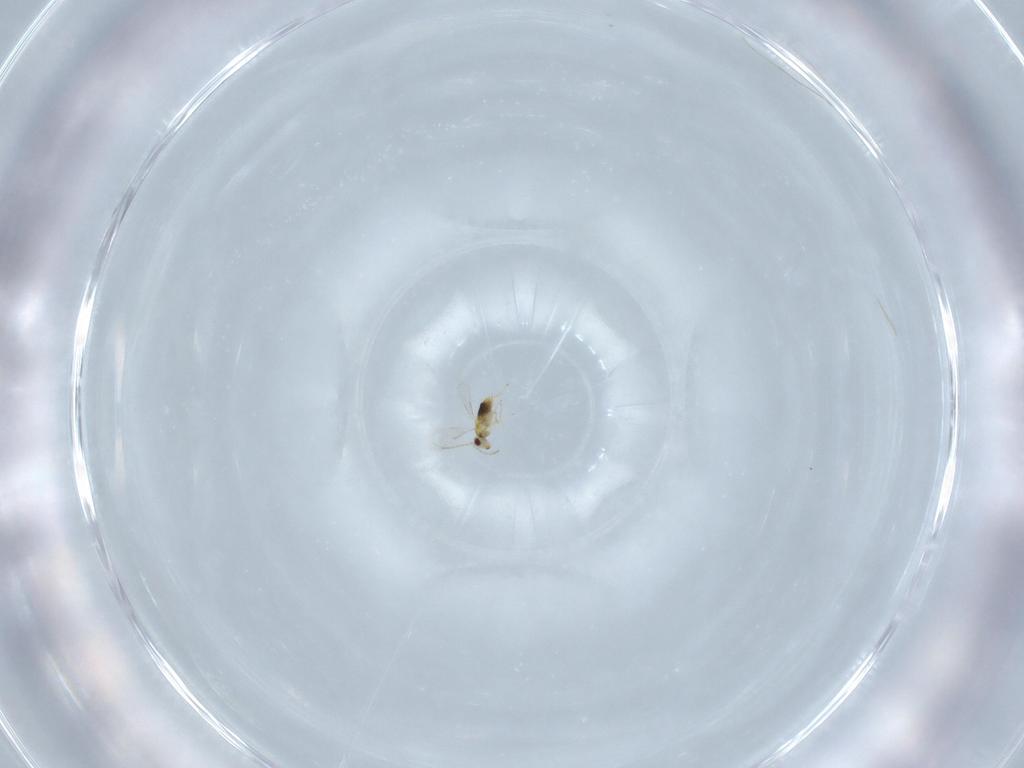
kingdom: Animalia
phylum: Arthropoda
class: Insecta
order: Hymenoptera
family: Aphelinidae
